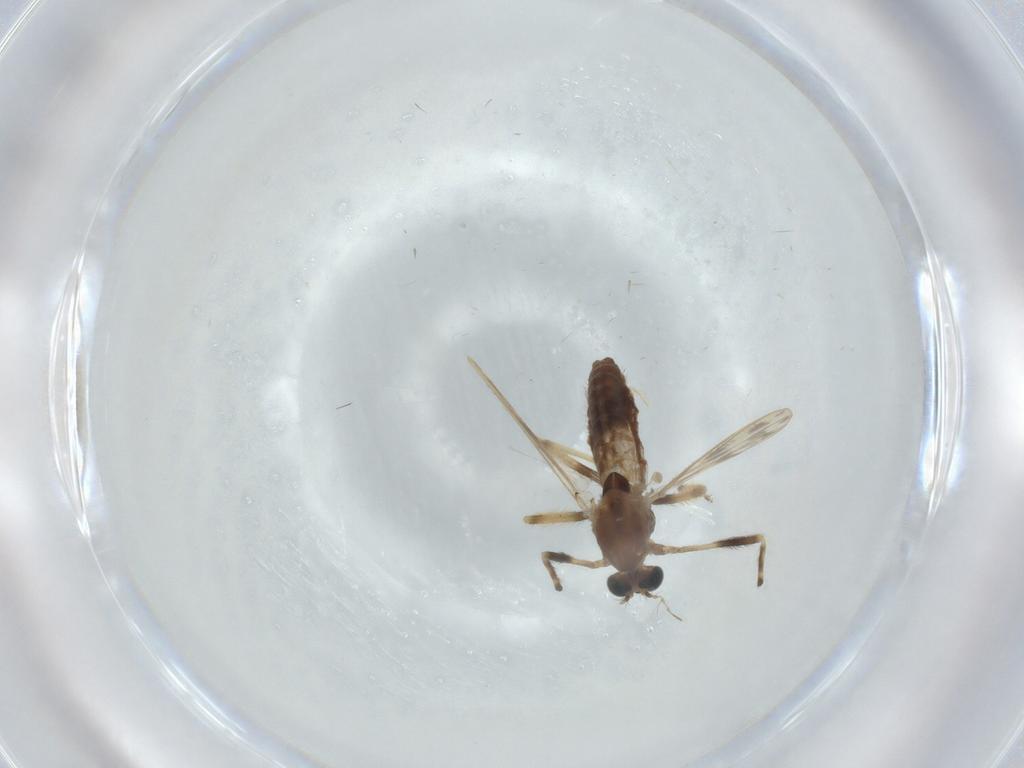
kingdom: Animalia
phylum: Arthropoda
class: Insecta
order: Diptera
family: Chironomidae
